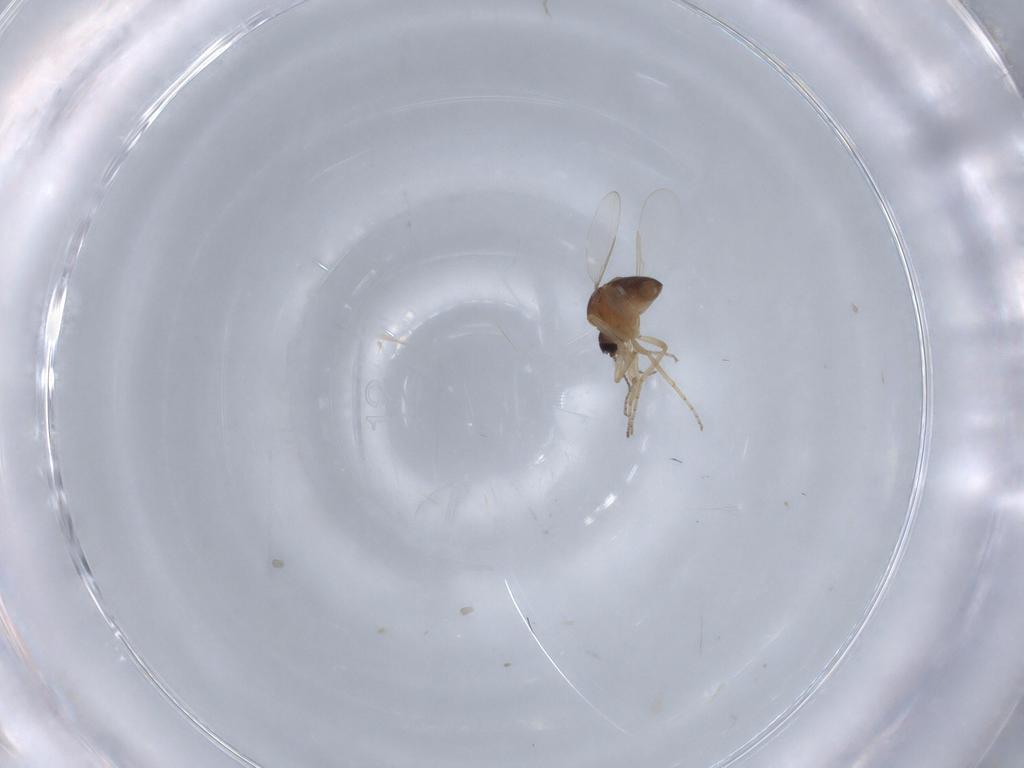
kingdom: Animalia
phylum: Arthropoda
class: Insecta
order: Diptera
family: Ceratopogonidae
